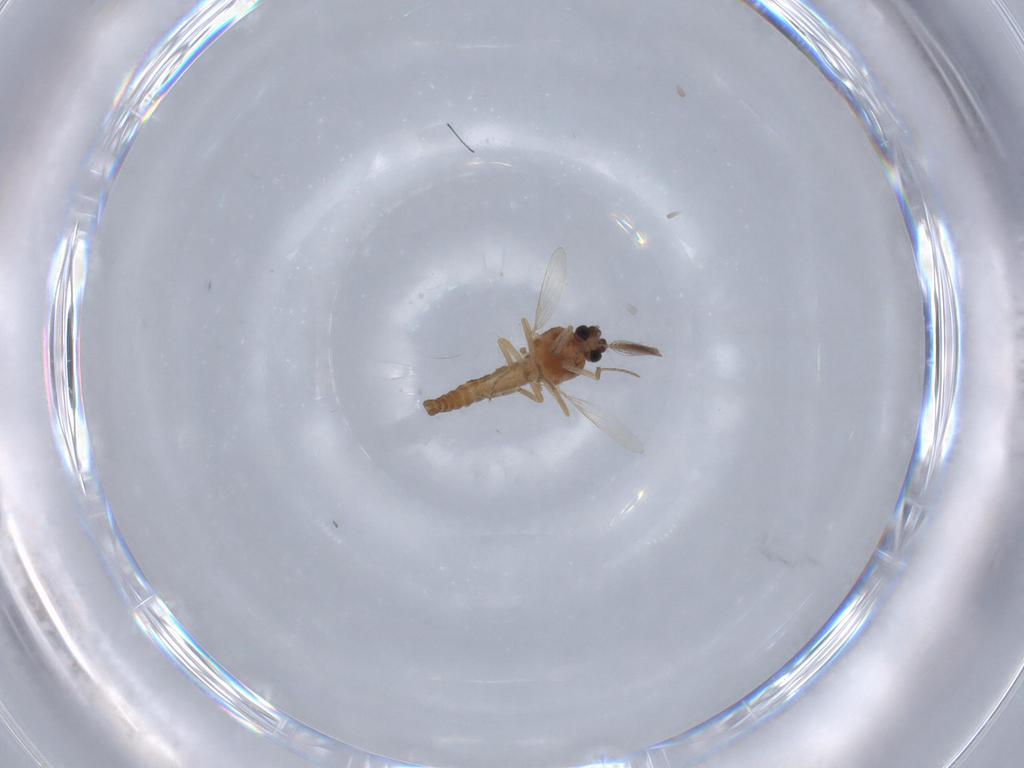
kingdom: Animalia
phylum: Arthropoda
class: Insecta
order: Diptera
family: Ceratopogonidae
